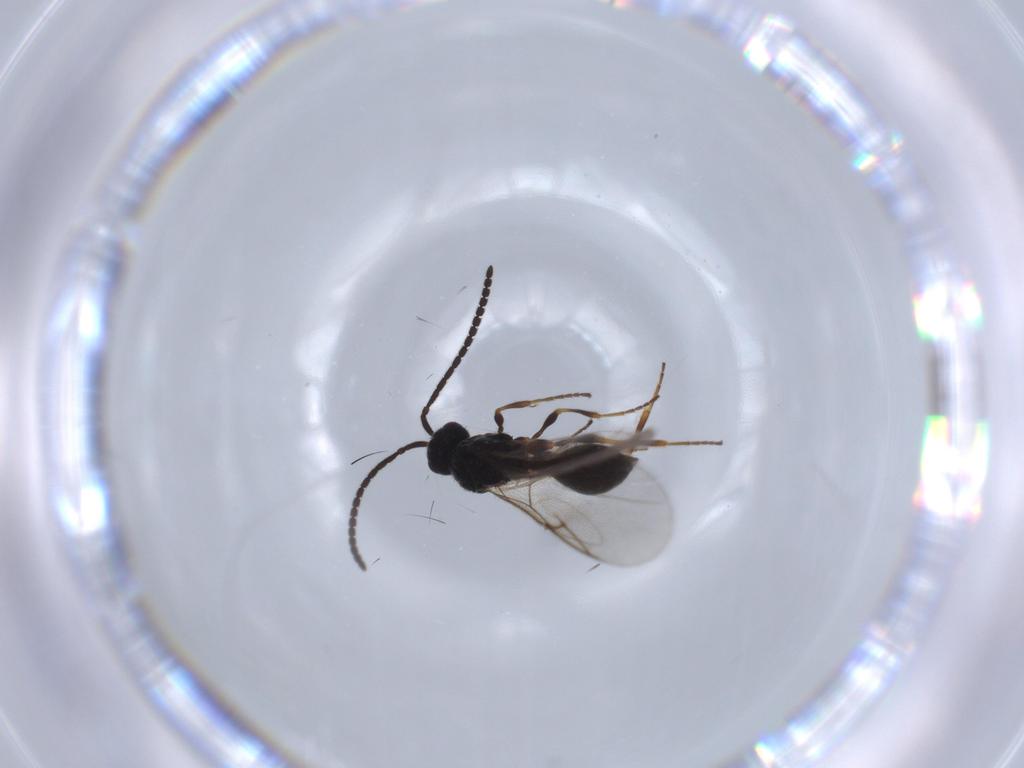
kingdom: Animalia
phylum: Arthropoda
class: Insecta
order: Hymenoptera
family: Diapriidae
